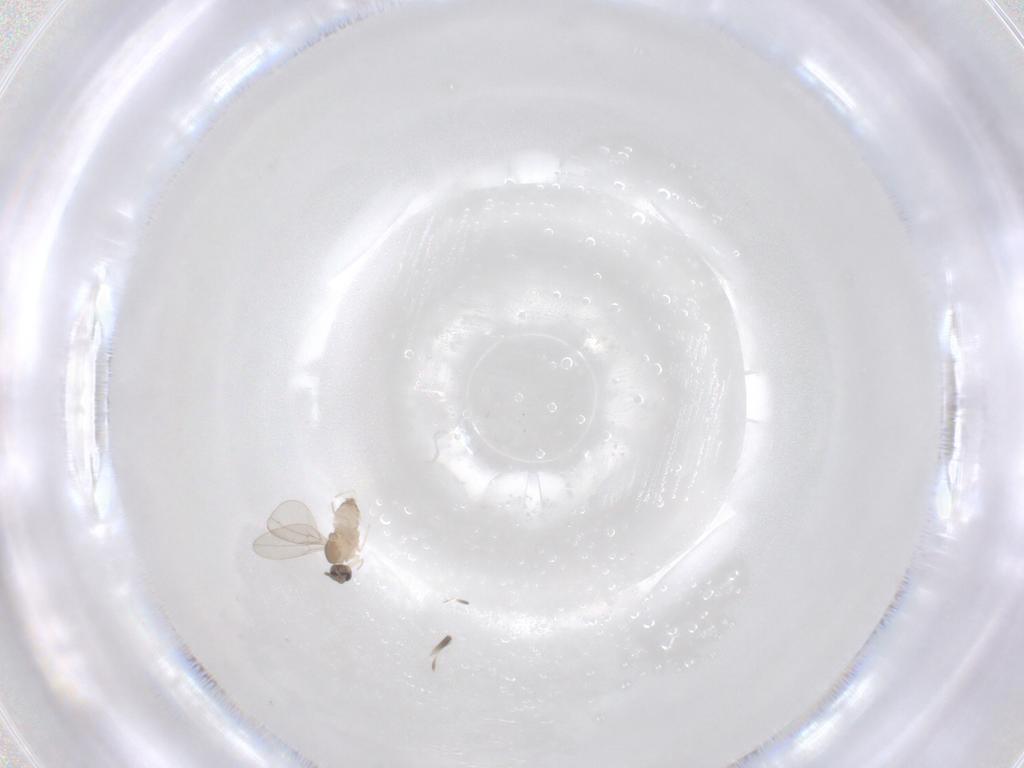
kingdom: Animalia
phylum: Arthropoda
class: Insecta
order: Diptera
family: Cecidomyiidae
